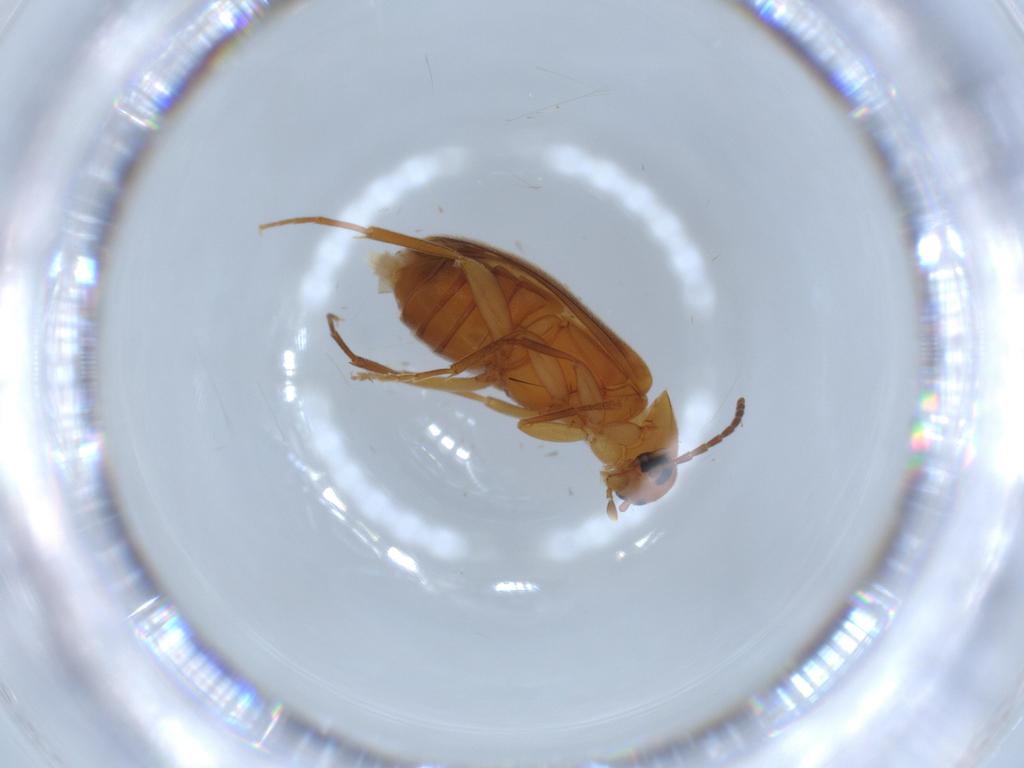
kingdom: Animalia
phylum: Arthropoda
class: Insecta
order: Coleoptera
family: Scraptiidae
